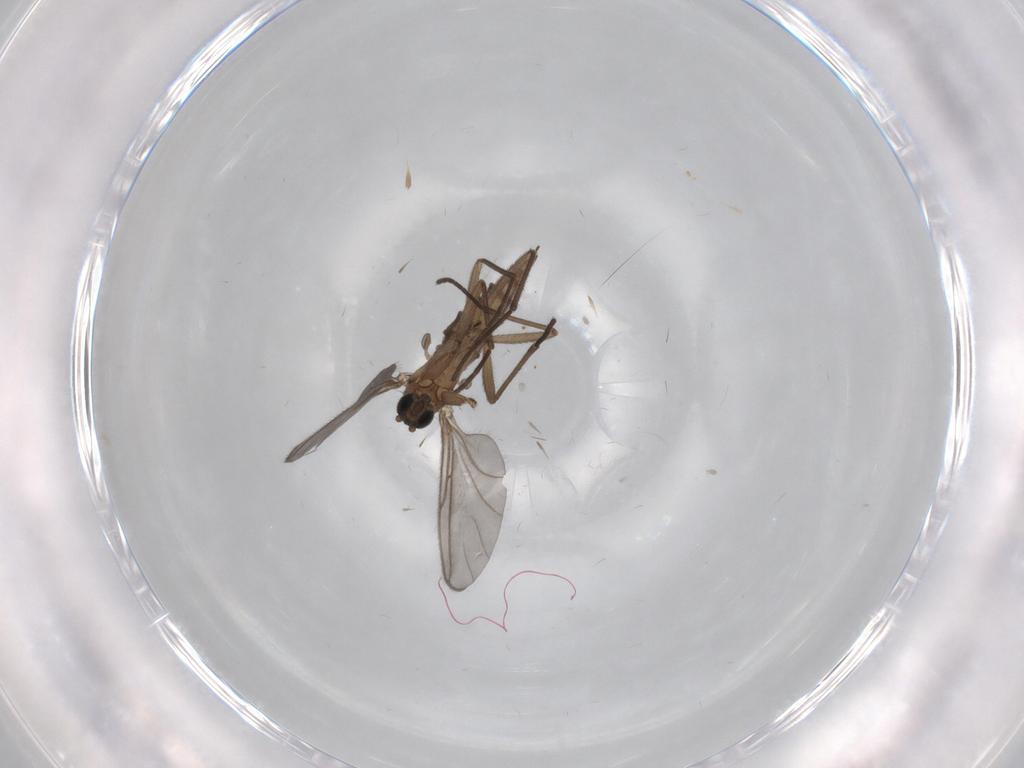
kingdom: Animalia
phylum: Arthropoda
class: Insecta
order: Diptera
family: Sciaridae
